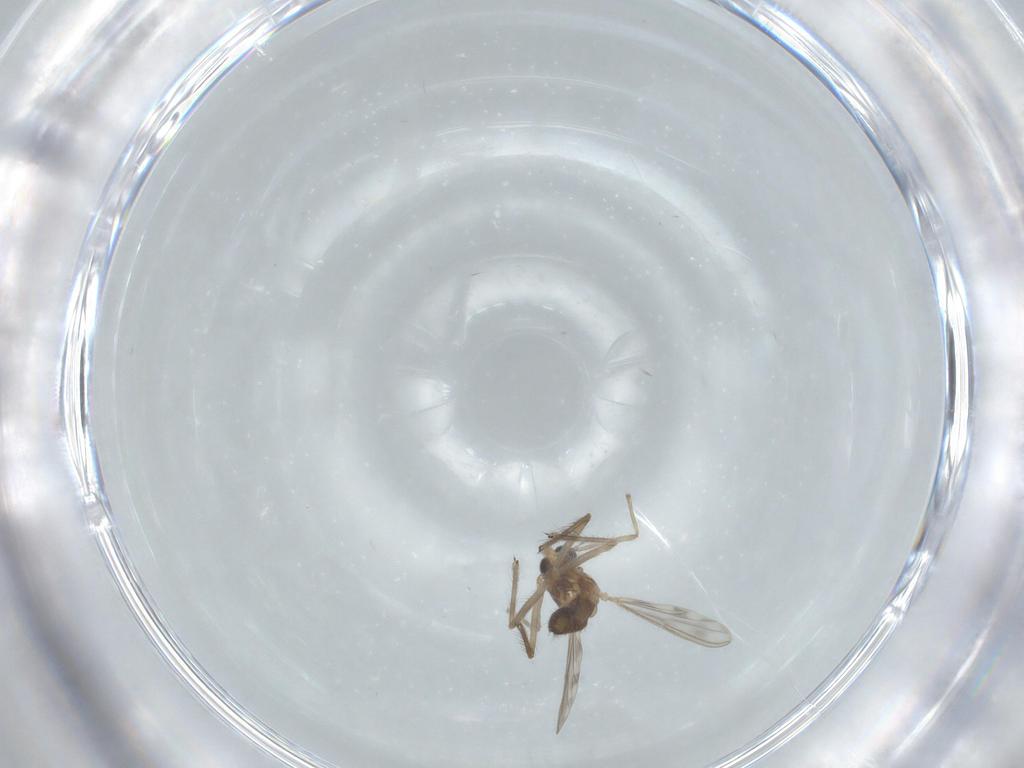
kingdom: Animalia
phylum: Arthropoda
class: Insecta
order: Diptera
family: Chironomidae
